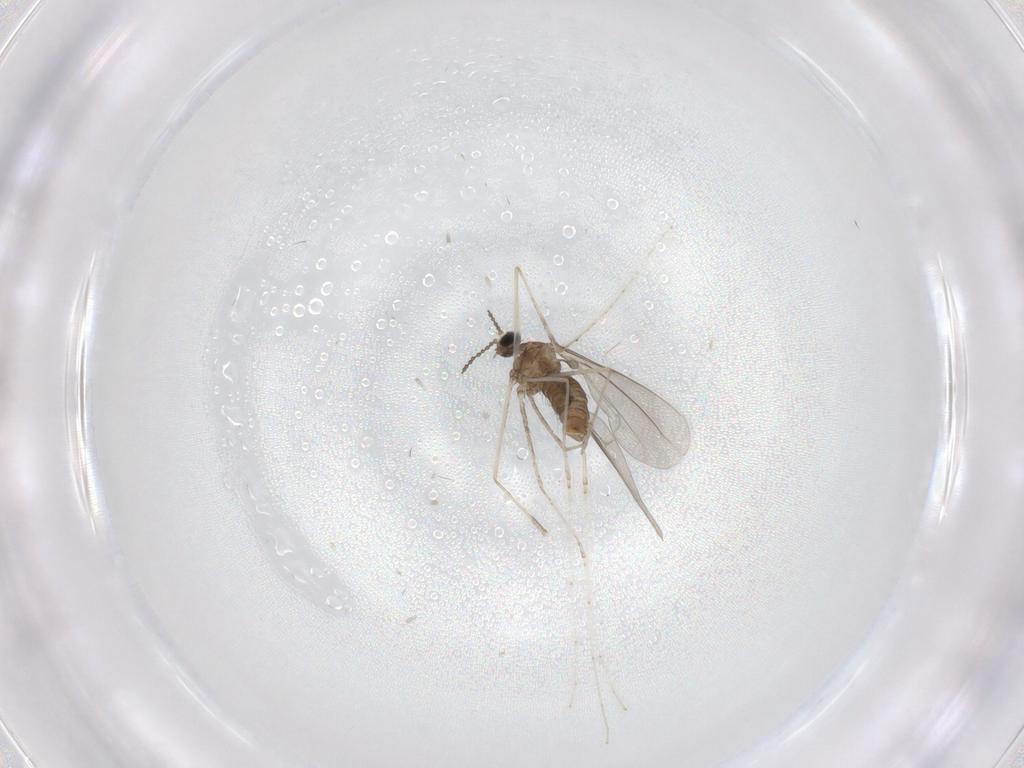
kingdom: Animalia
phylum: Arthropoda
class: Insecta
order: Diptera
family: Cecidomyiidae
